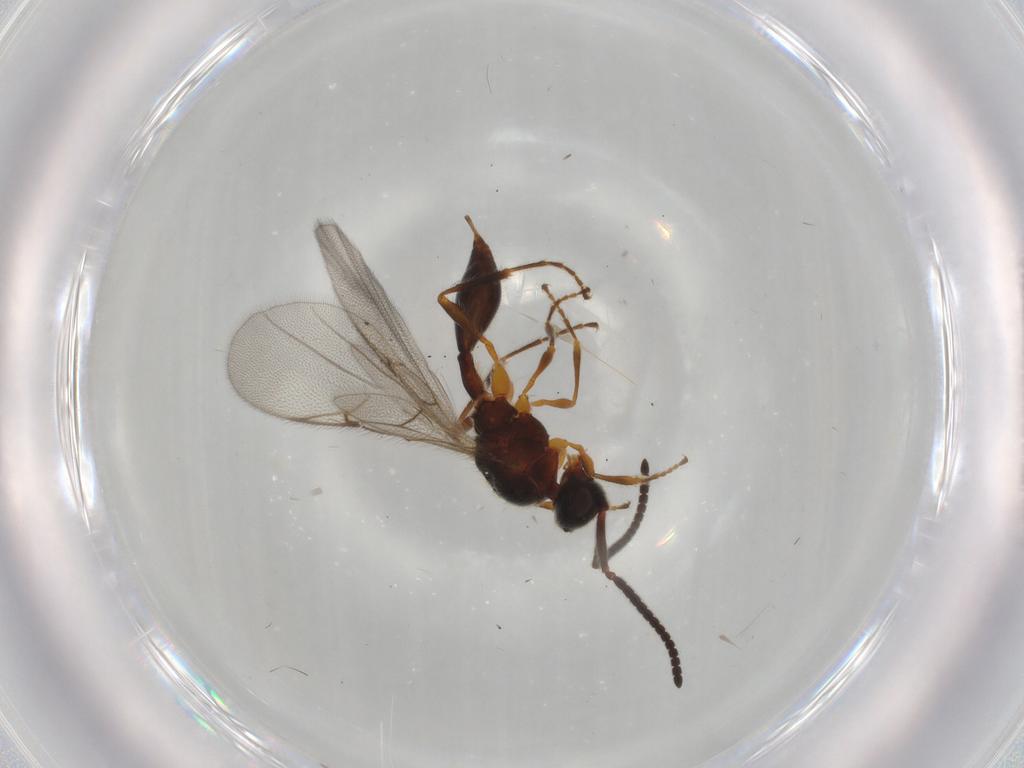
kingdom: Animalia
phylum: Arthropoda
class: Insecta
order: Hymenoptera
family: Diapriidae
